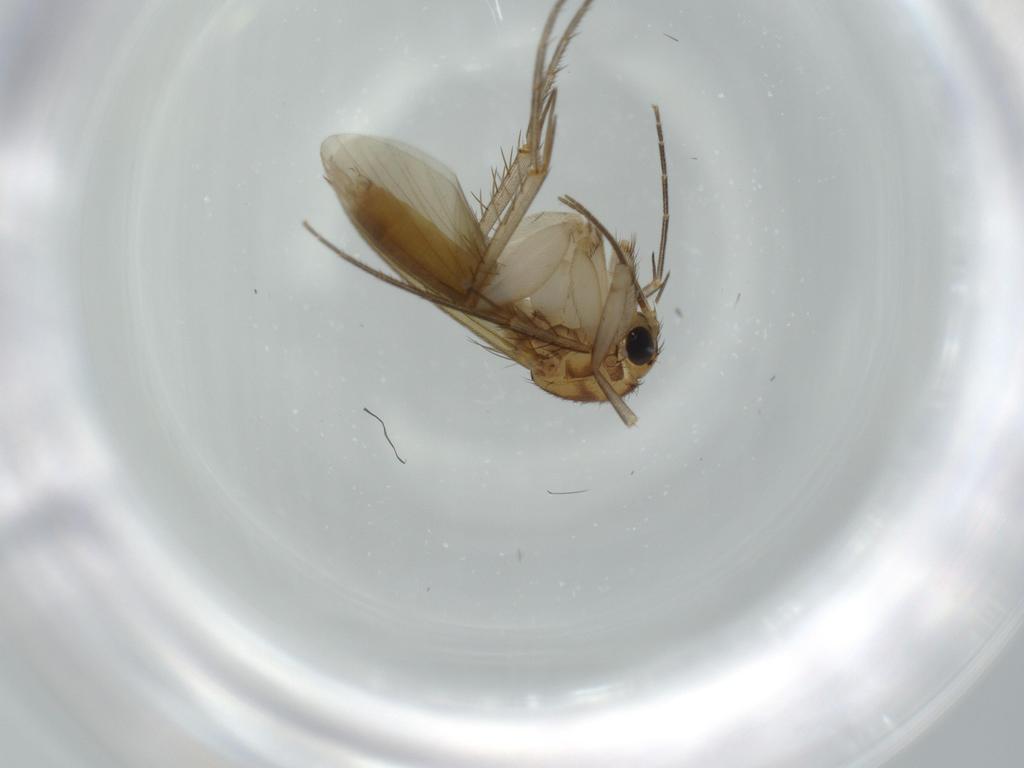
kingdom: Animalia
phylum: Arthropoda
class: Insecta
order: Diptera
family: Mycetophilidae
